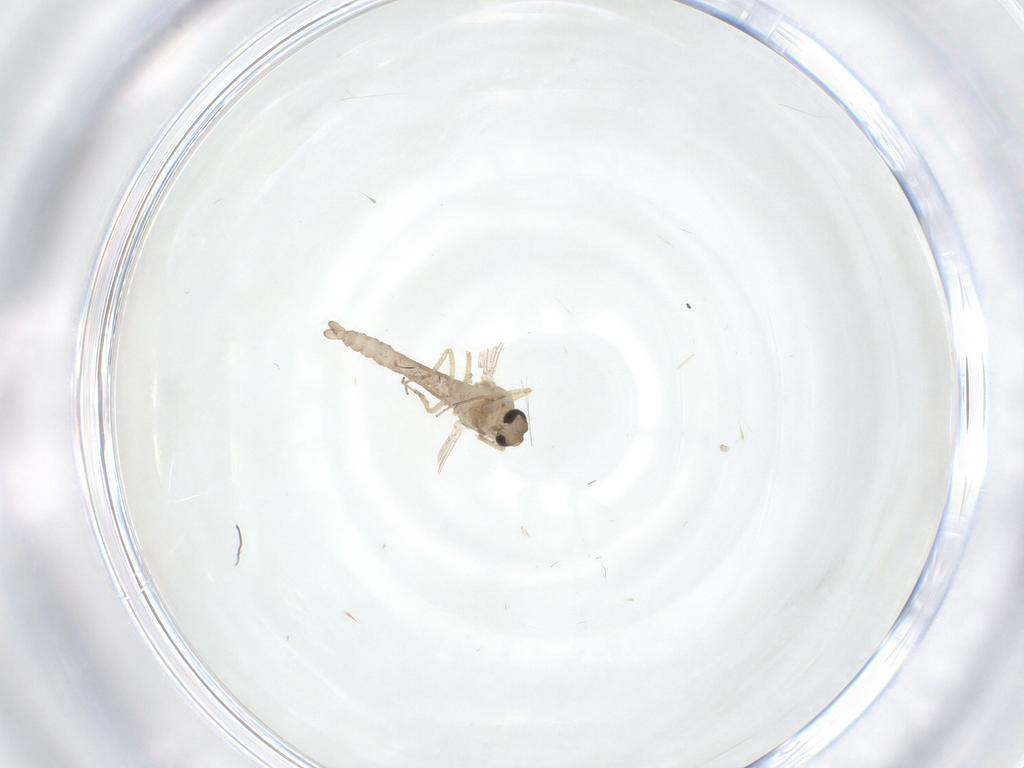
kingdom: Animalia
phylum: Arthropoda
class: Insecta
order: Diptera
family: Ceratopogonidae
